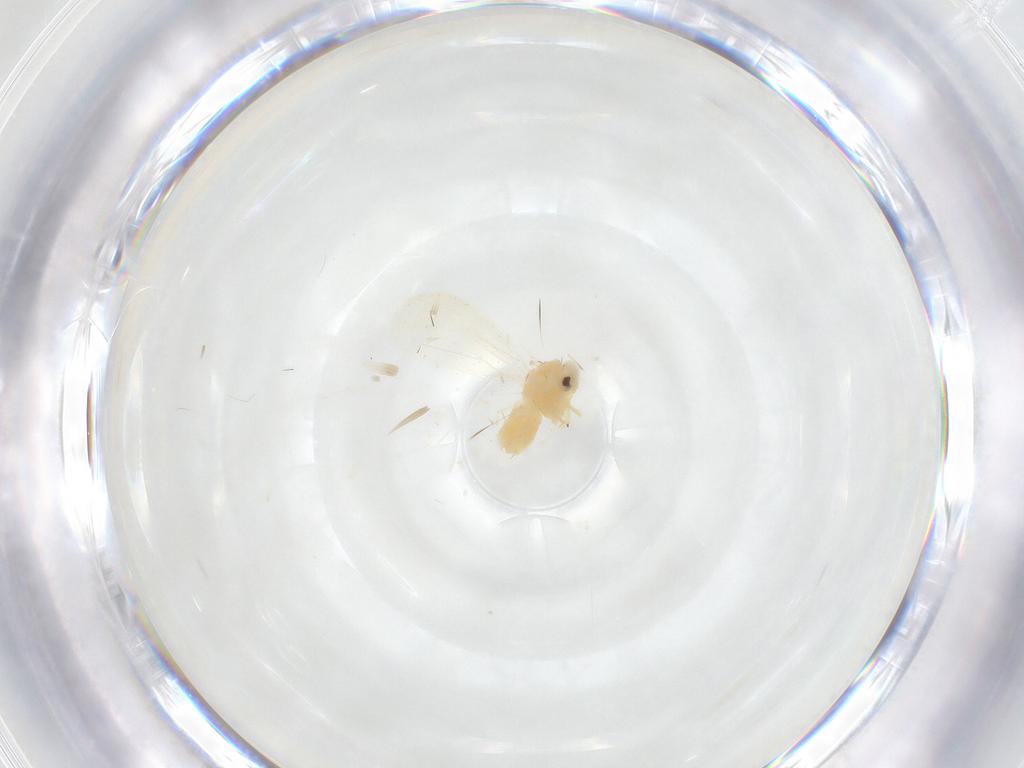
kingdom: Animalia
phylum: Arthropoda
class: Insecta
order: Hemiptera
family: Aleyrodidae
